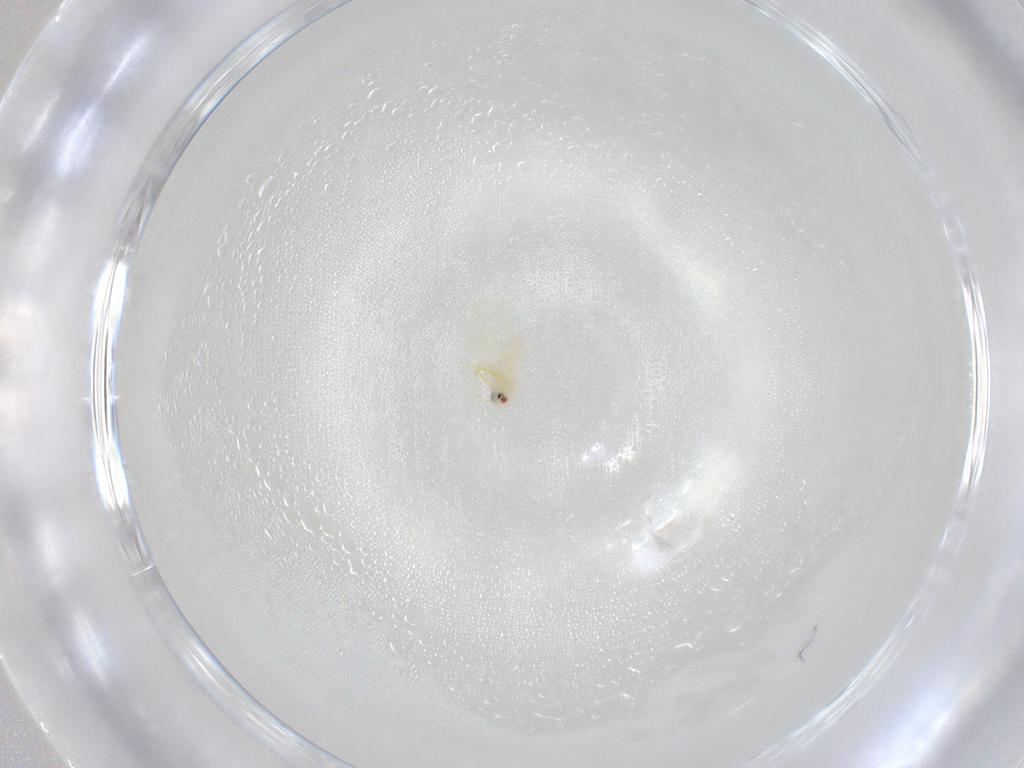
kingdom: Animalia
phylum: Arthropoda
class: Insecta
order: Hemiptera
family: Aleyrodidae
